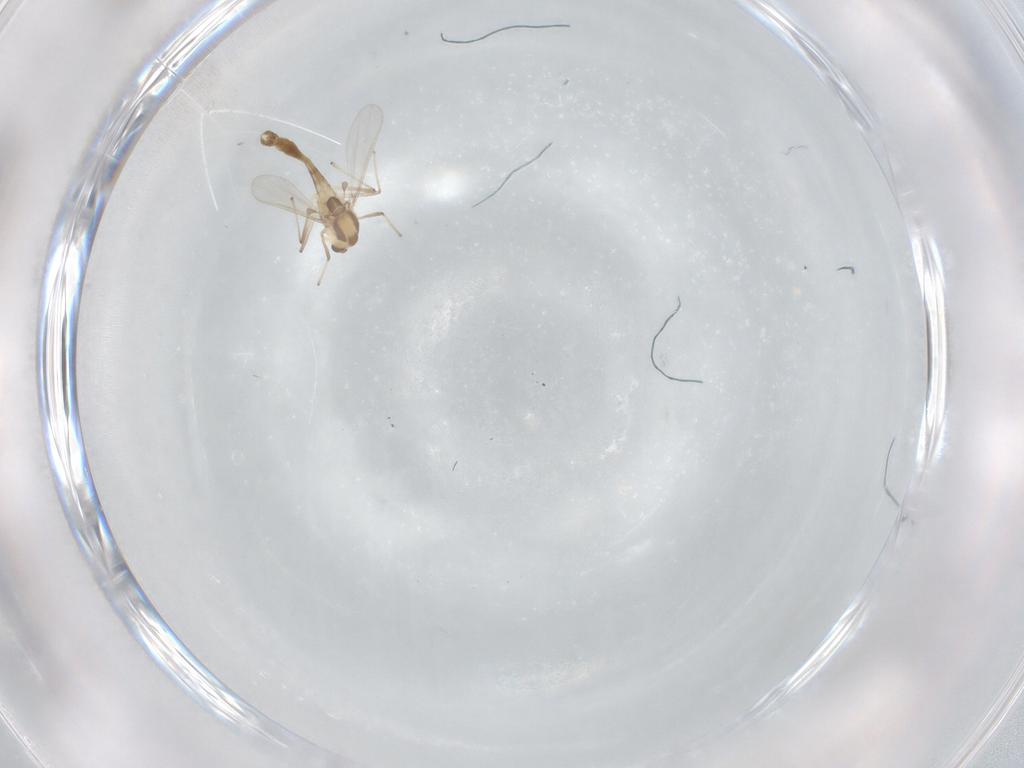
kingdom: Animalia
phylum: Arthropoda
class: Insecta
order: Diptera
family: Chironomidae
